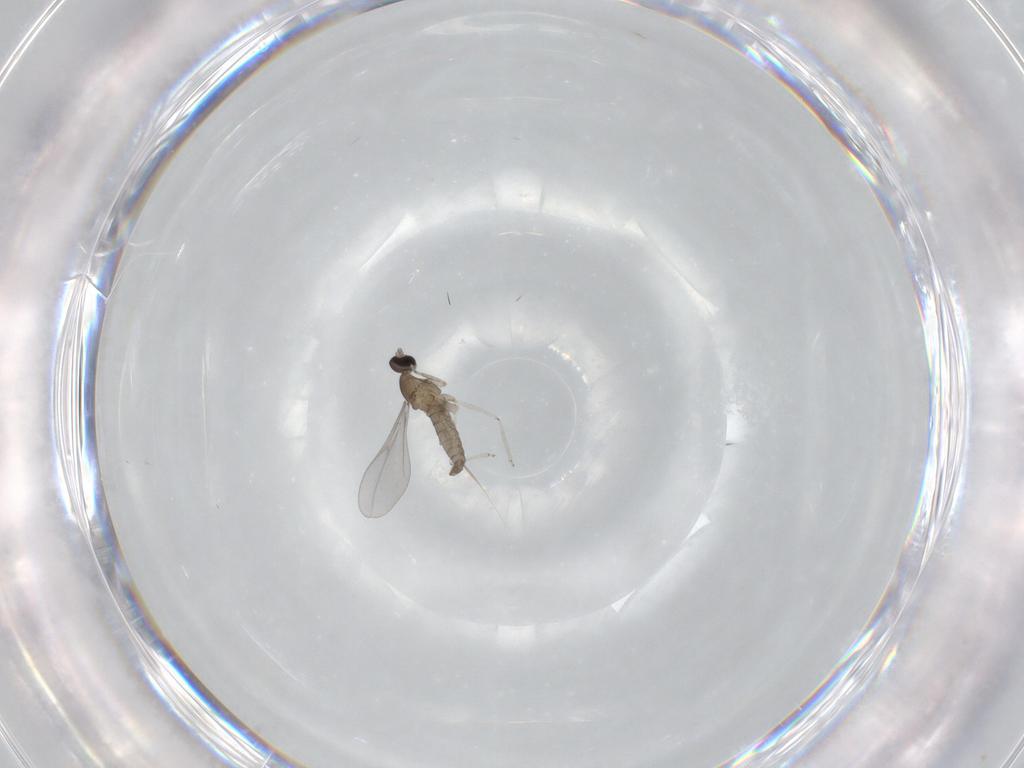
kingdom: Animalia
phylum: Arthropoda
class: Insecta
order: Diptera
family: Cecidomyiidae
